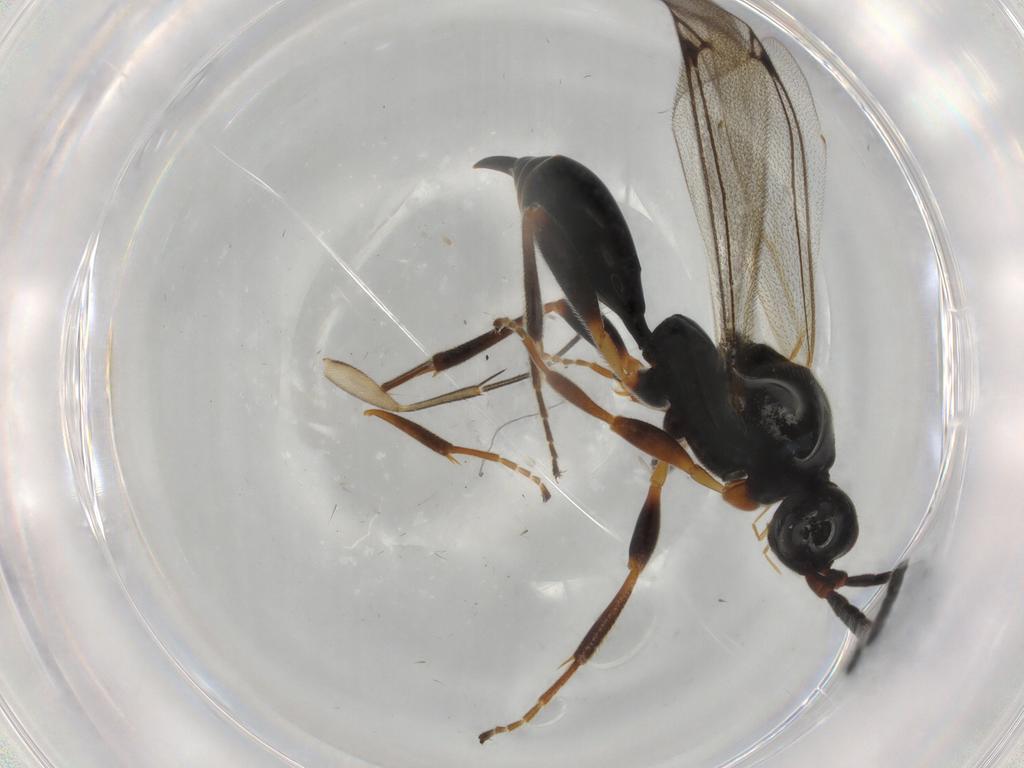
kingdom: Animalia
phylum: Arthropoda
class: Insecta
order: Hymenoptera
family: Proctotrupidae
